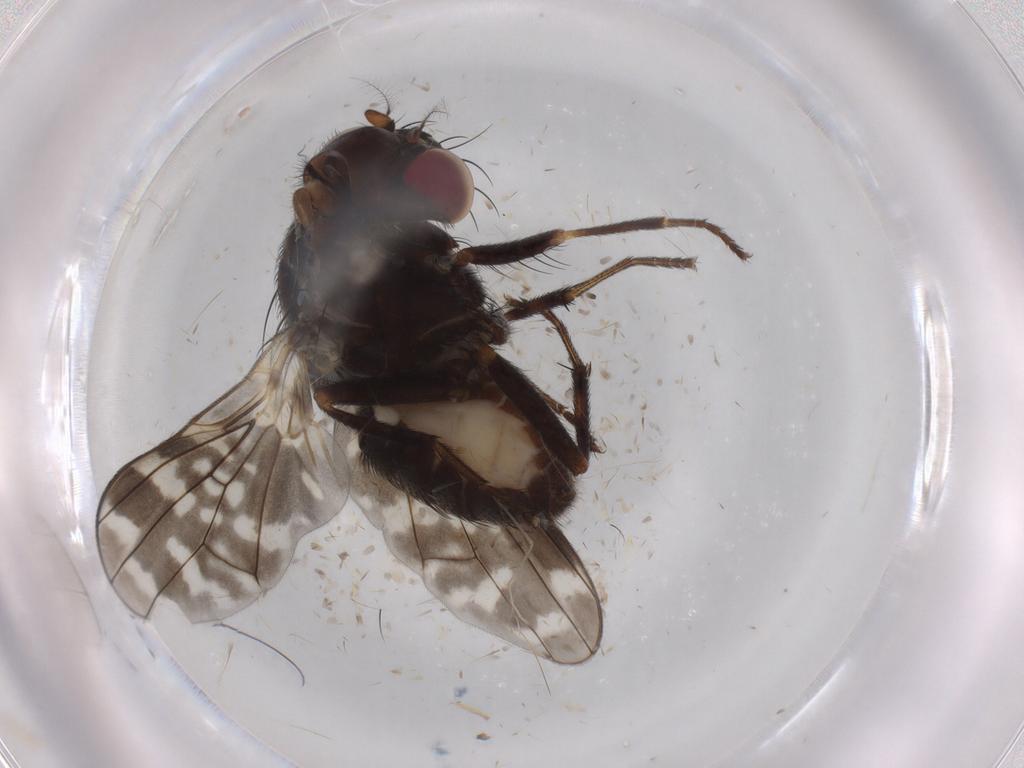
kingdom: Animalia
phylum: Arthropoda
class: Insecta
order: Diptera
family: Lauxaniidae
